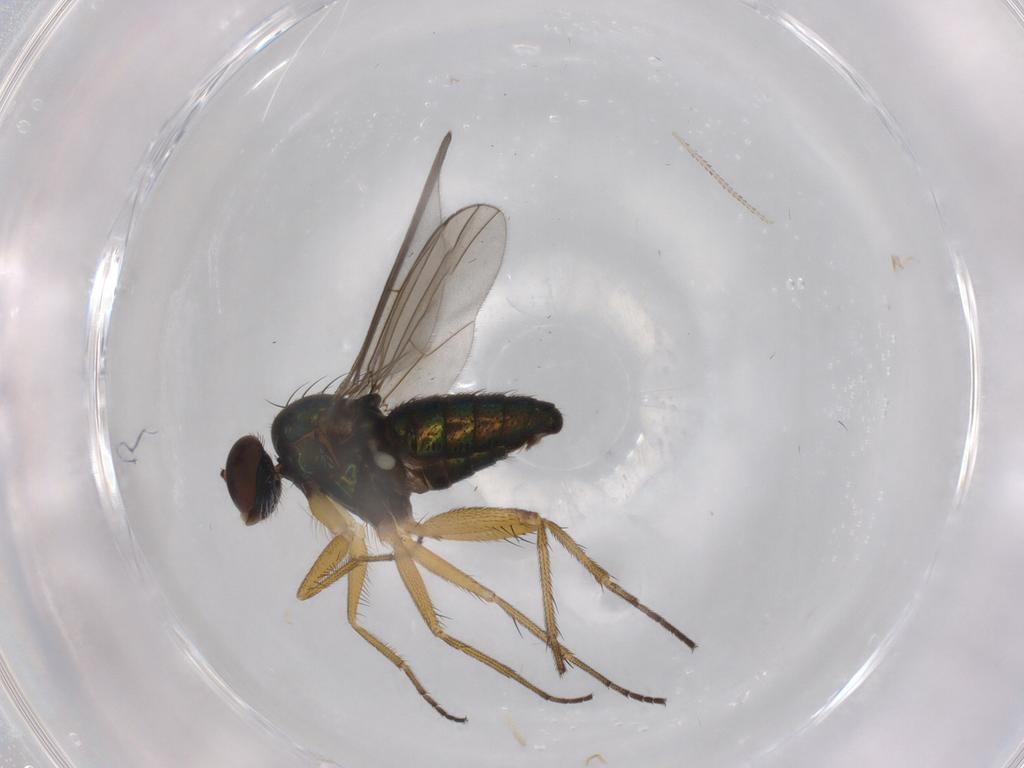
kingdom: Animalia
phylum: Arthropoda
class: Insecta
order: Diptera
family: Dolichopodidae
